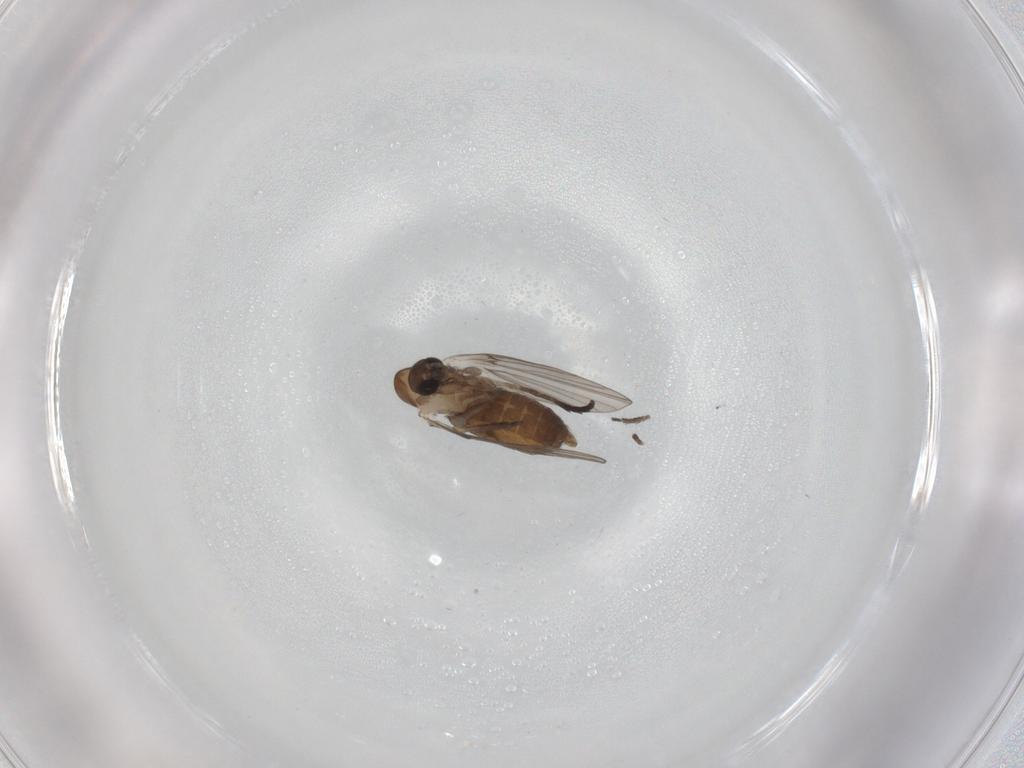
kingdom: Animalia
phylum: Arthropoda
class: Insecta
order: Diptera
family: Psychodidae
